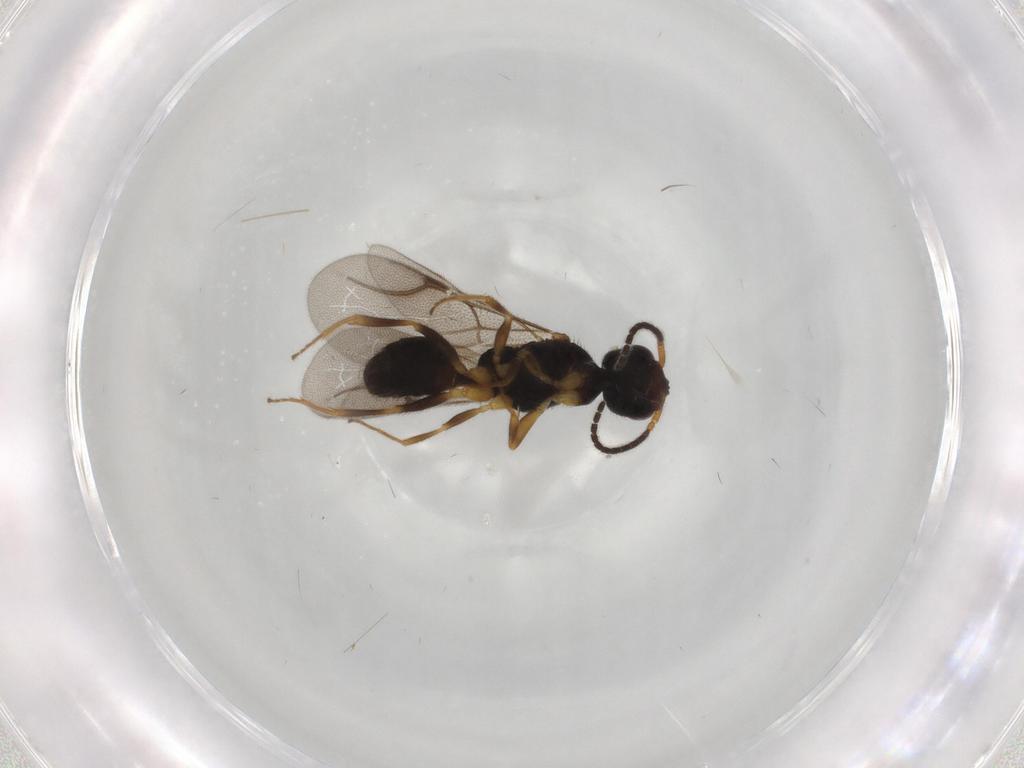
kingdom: Animalia
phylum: Arthropoda
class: Insecta
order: Hymenoptera
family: Bethylidae
